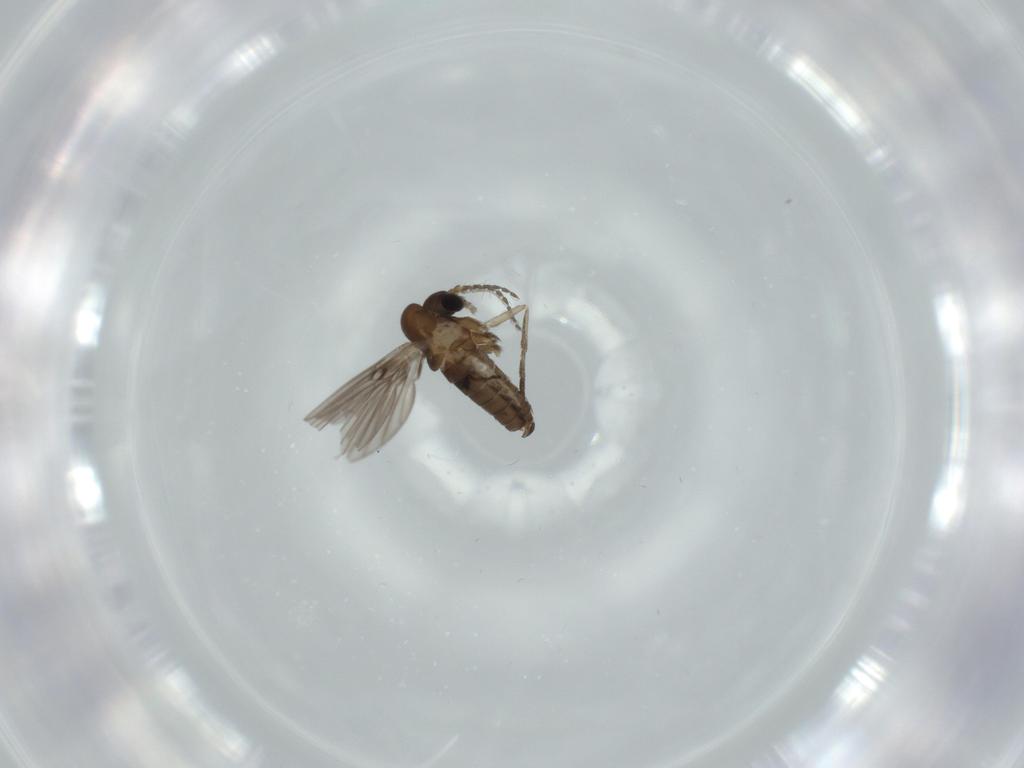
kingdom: Animalia
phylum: Arthropoda
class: Insecta
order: Diptera
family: Psychodidae
